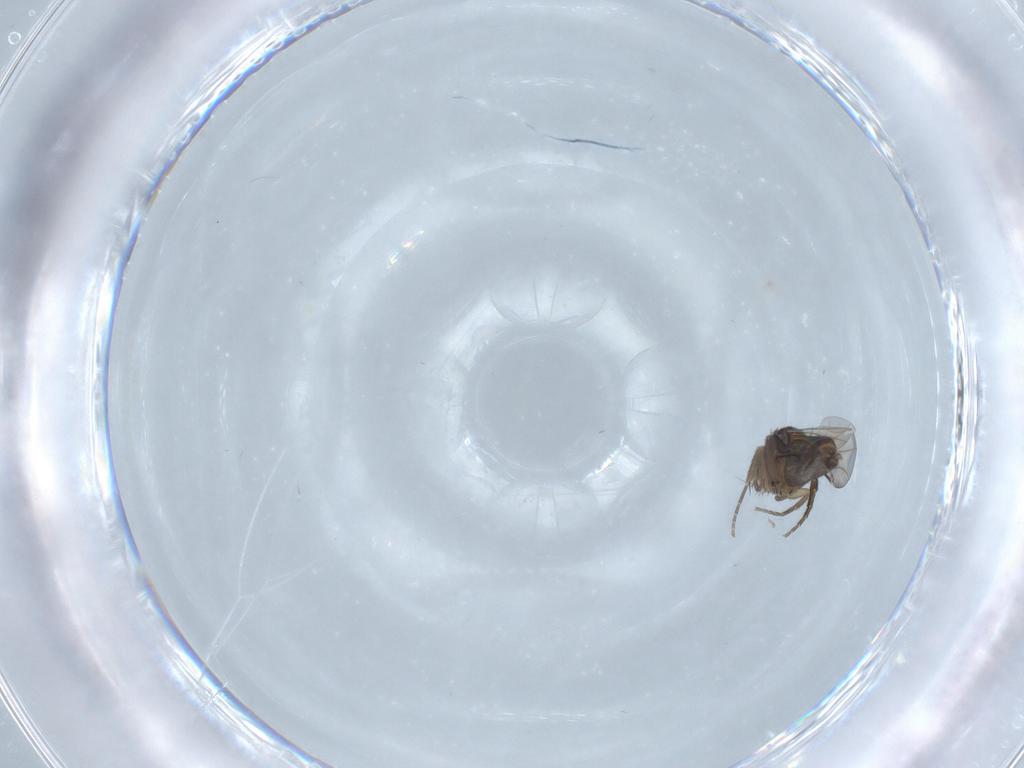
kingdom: Animalia
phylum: Arthropoda
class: Insecta
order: Diptera
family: Phoridae
